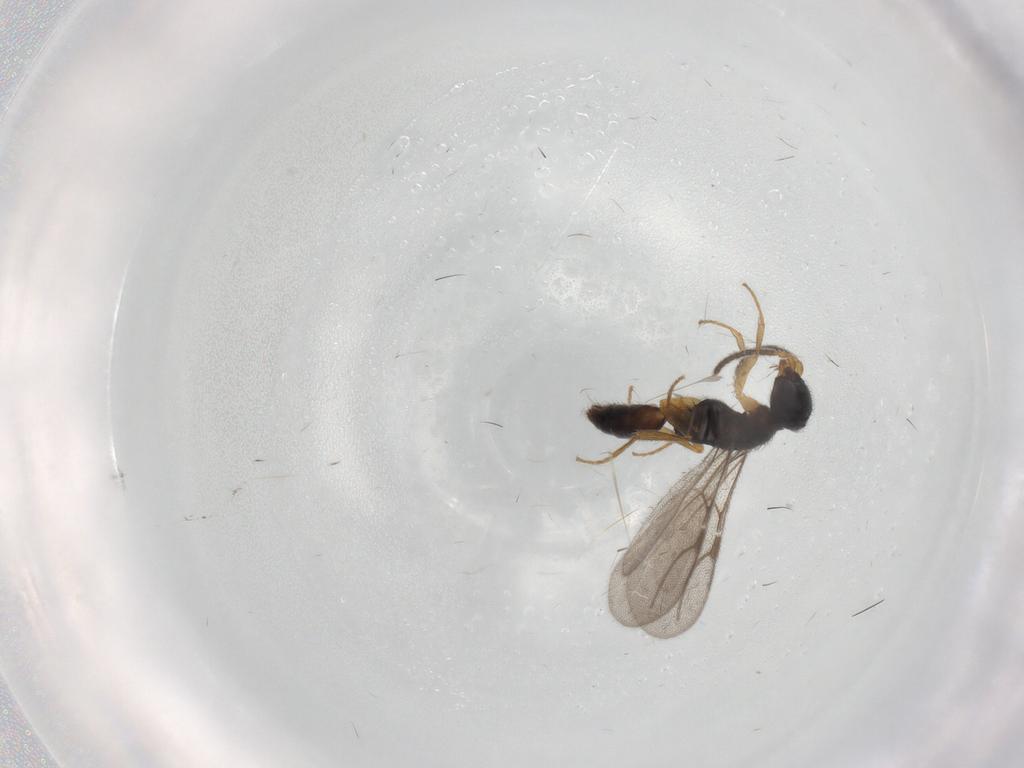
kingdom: Animalia
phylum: Arthropoda
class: Insecta
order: Hymenoptera
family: Bethylidae
